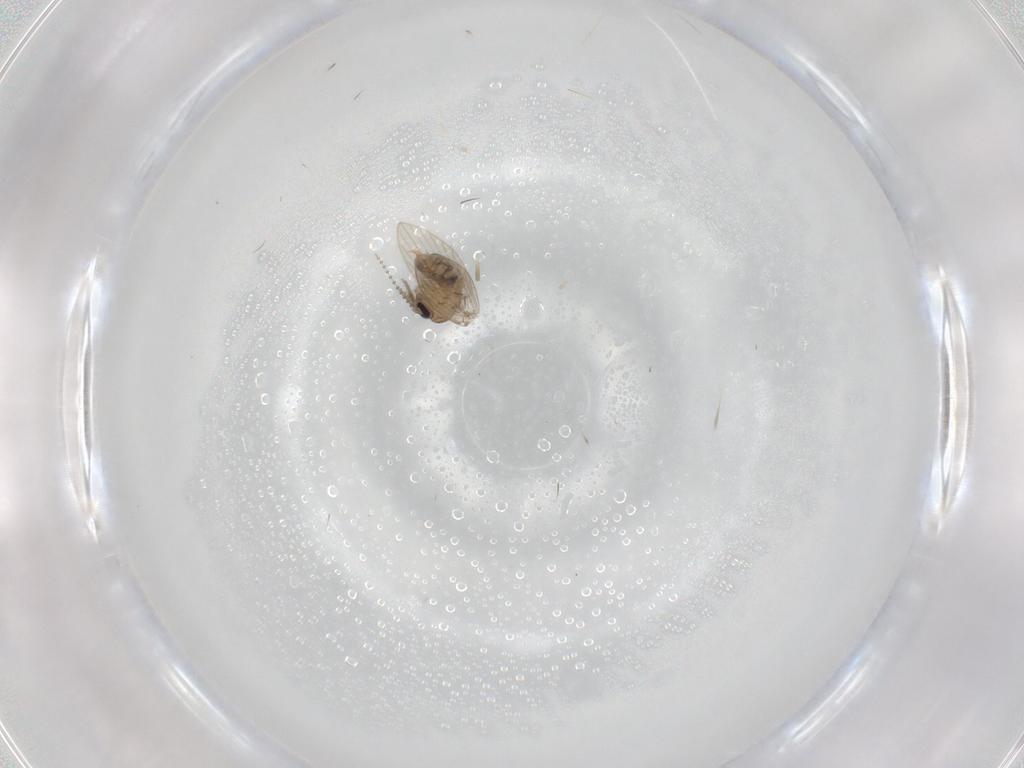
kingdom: Animalia
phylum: Arthropoda
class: Insecta
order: Diptera
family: Psychodidae
